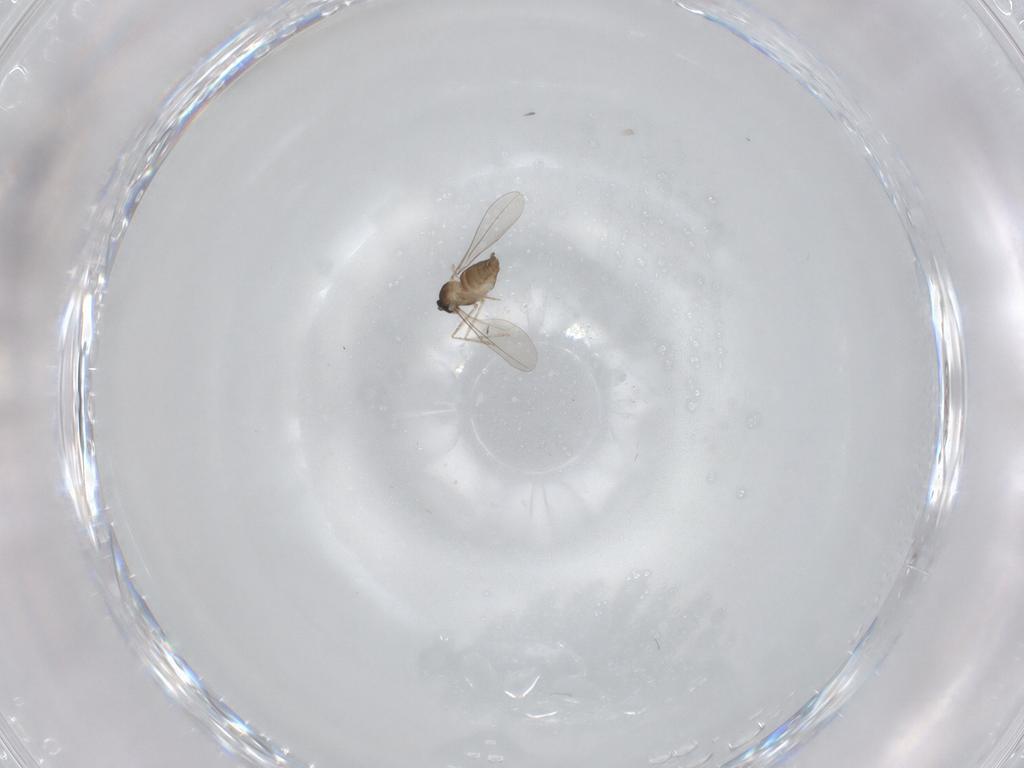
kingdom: Animalia
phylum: Arthropoda
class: Insecta
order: Diptera
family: Cecidomyiidae
